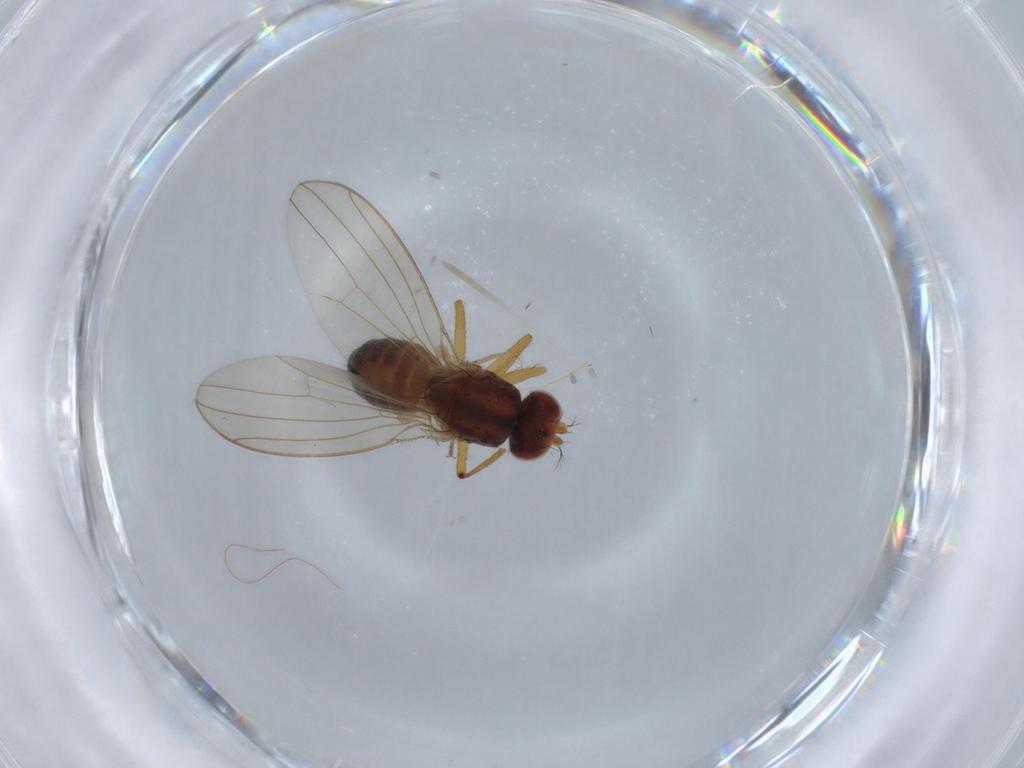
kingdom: Animalia
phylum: Arthropoda
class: Insecta
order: Diptera
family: Drosophilidae
